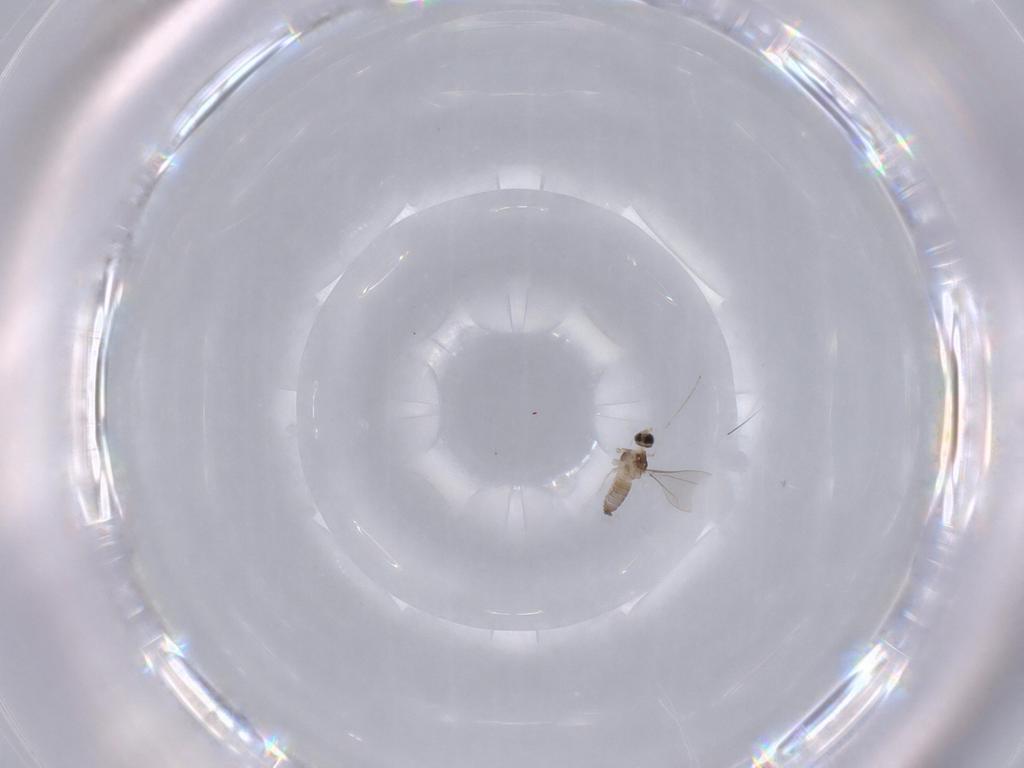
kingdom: Animalia
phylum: Arthropoda
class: Insecta
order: Diptera
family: Cecidomyiidae
